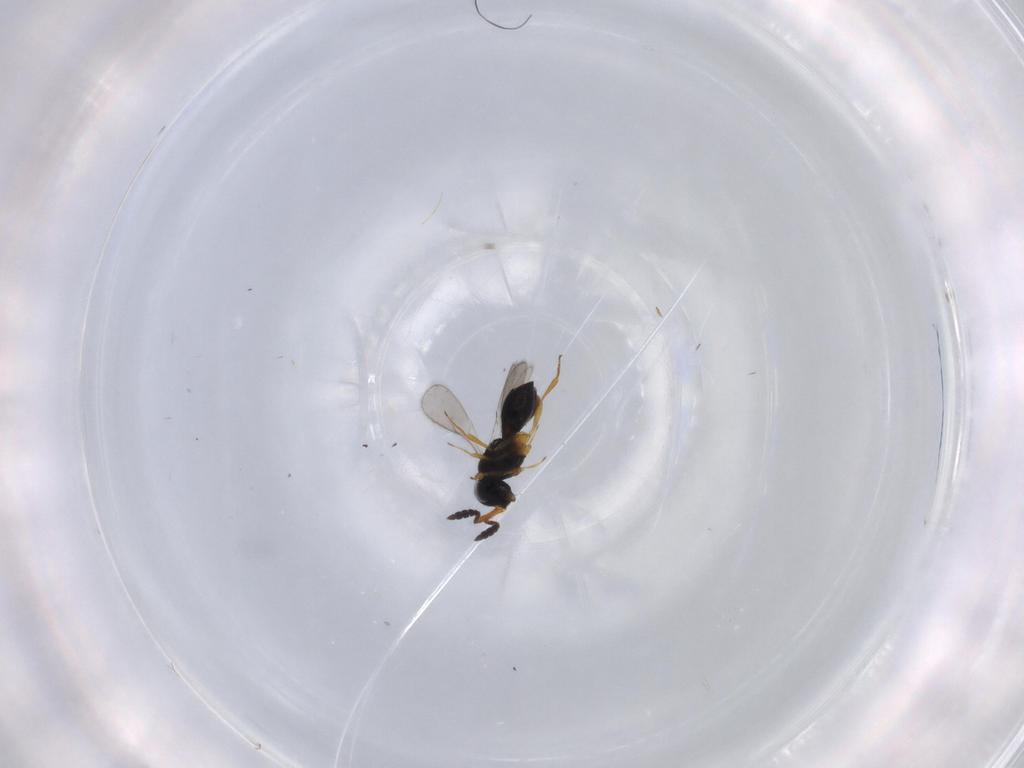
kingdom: Animalia
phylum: Arthropoda
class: Insecta
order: Hymenoptera
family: Scelionidae
